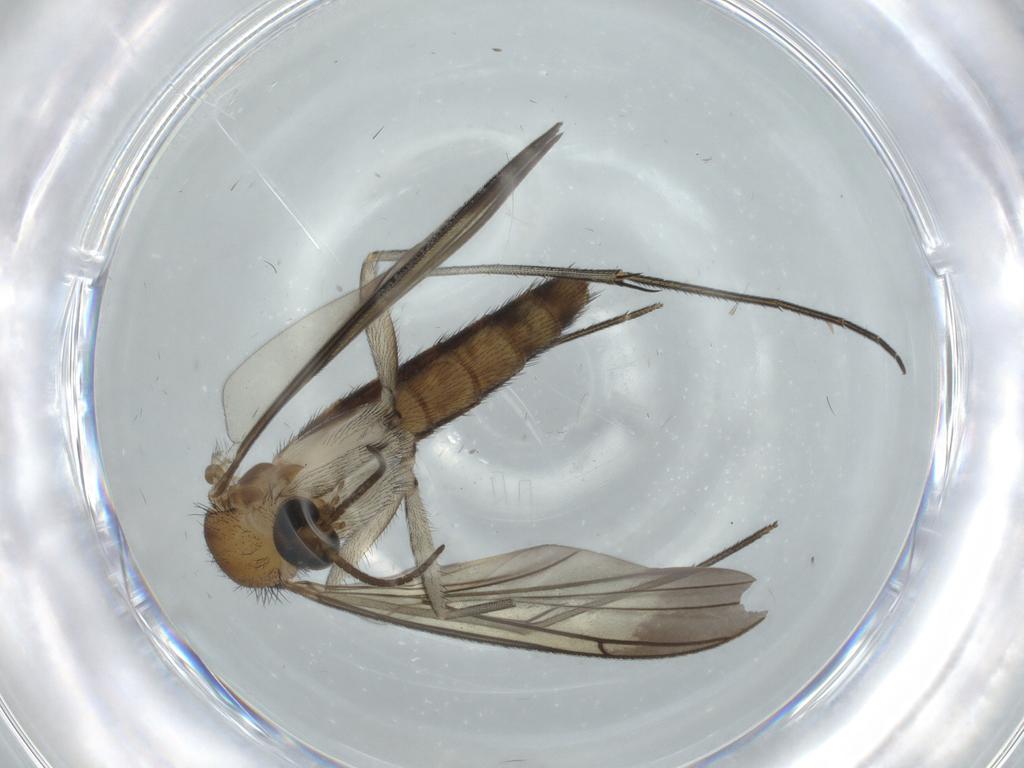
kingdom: Animalia
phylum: Arthropoda
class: Insecta
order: Diptera
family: Keroplatidae
